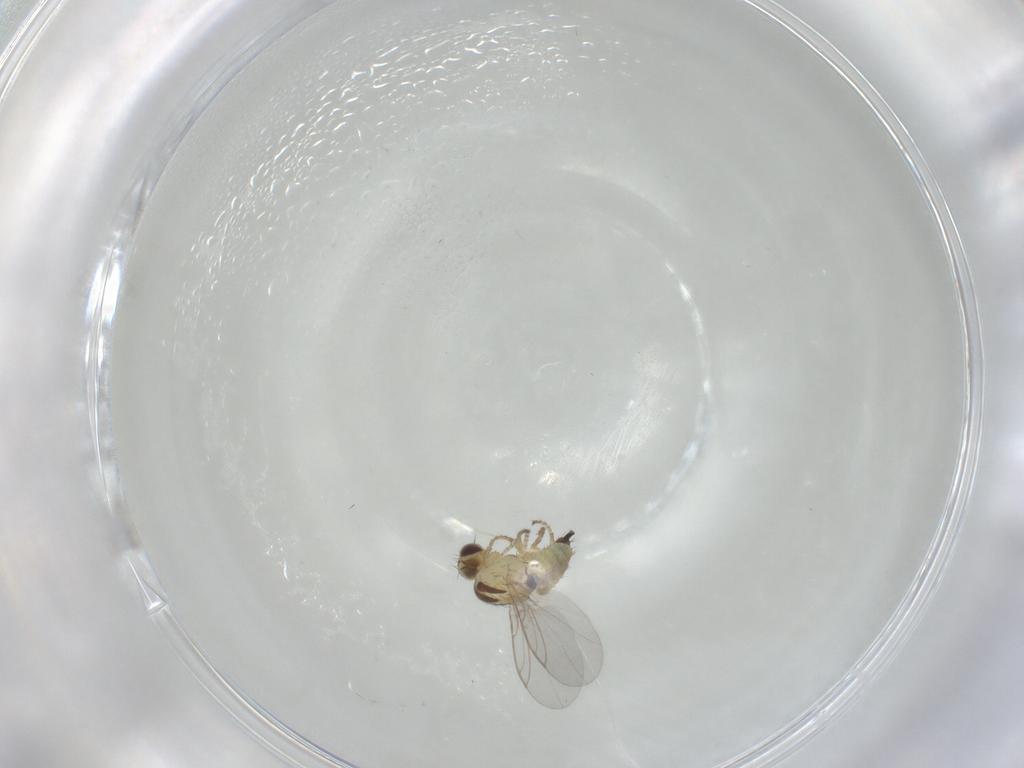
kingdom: Animalia
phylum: Arthropoda
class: Insecta
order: Diptera
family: Agromyzidae
